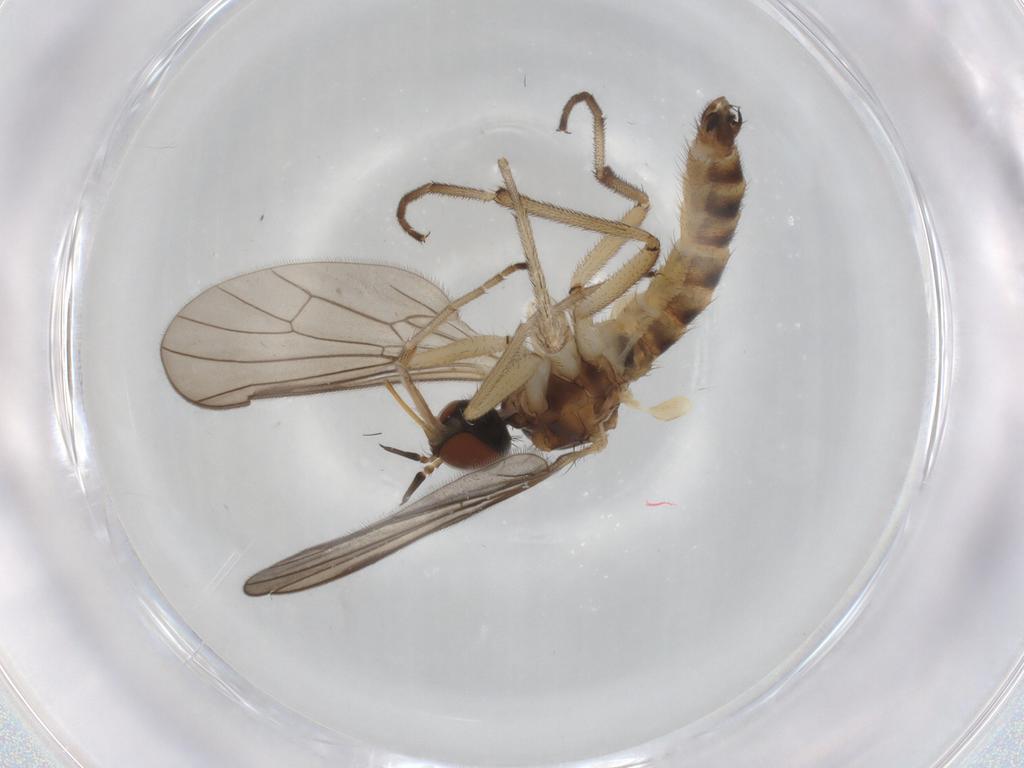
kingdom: Animalia
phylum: Arthropoda
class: Insecta
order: Diptera
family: Empididae
